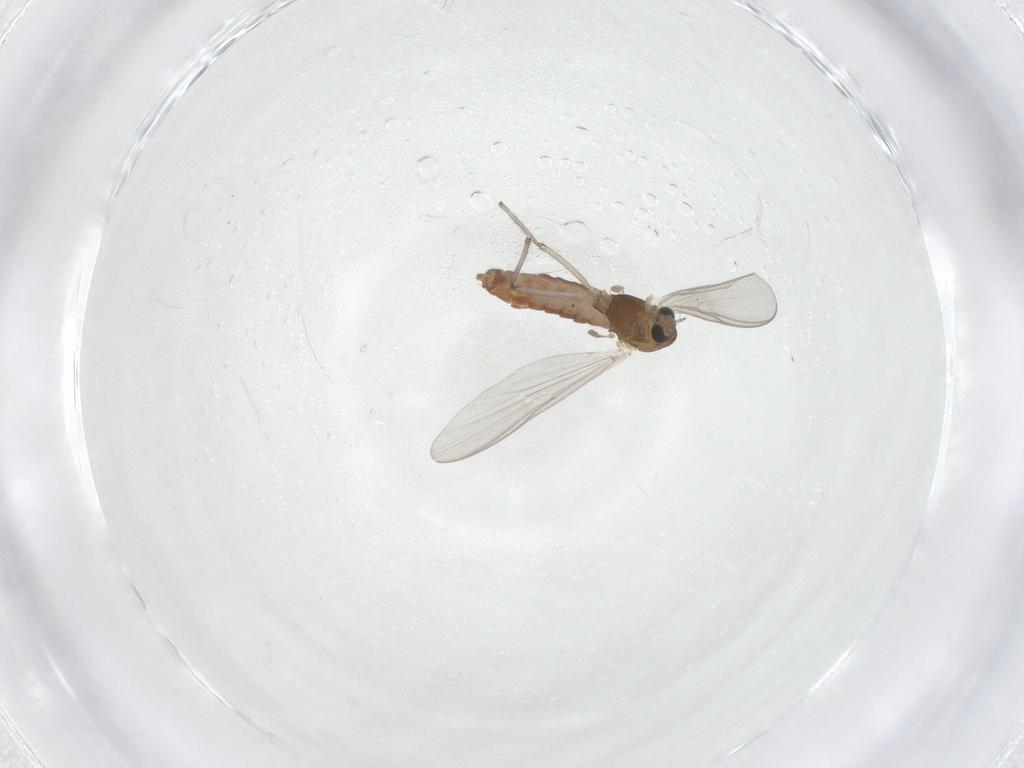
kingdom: Animalia
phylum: Arthropoda
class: Insecta
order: Diptera
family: Chironomidae
